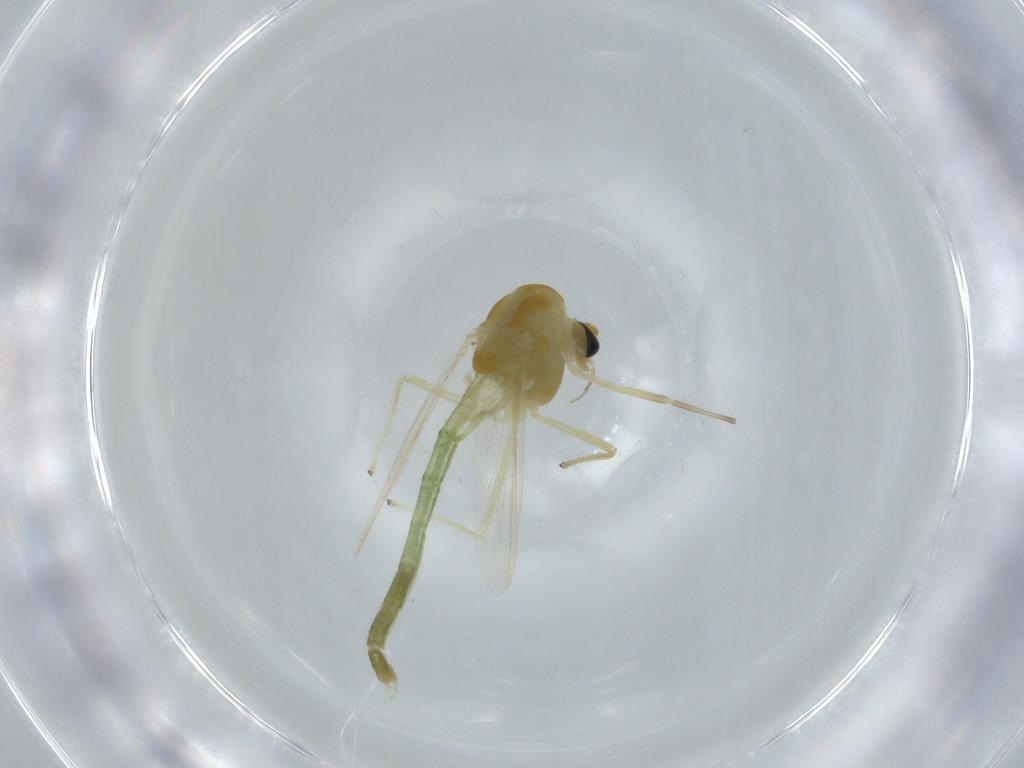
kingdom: Animalia
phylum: Arthropoda
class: Insecta
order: Diptera
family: Chironomidae
